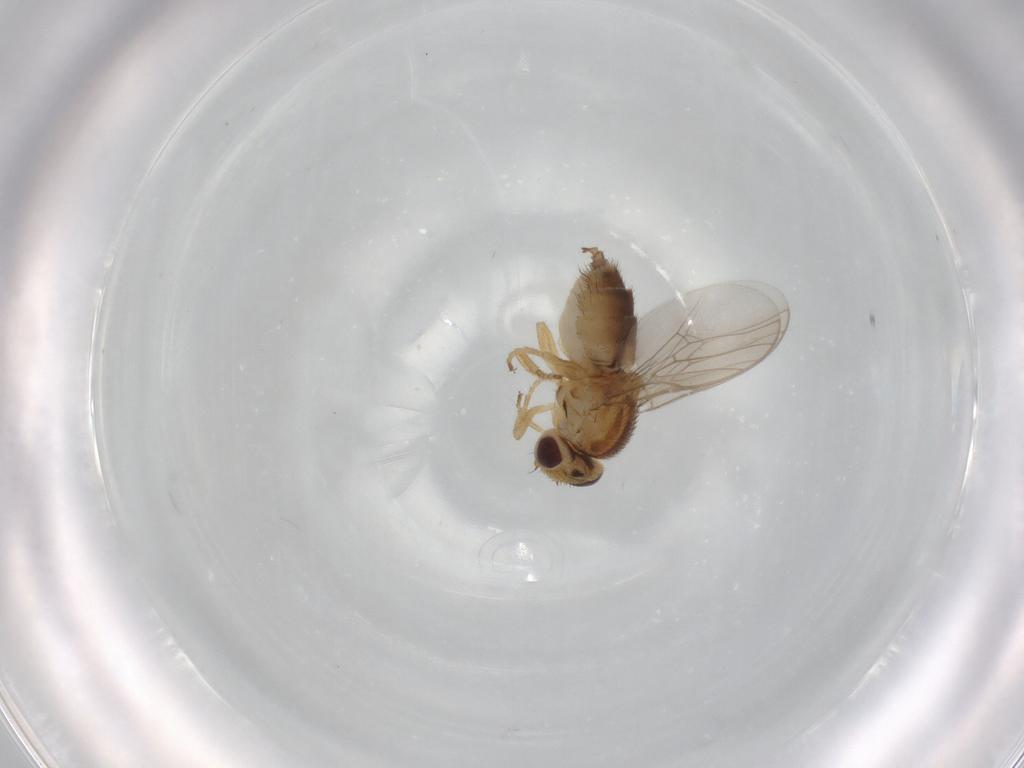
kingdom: Animalia
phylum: Arthropoda
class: Insecta
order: Diptera
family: Chloropidae
